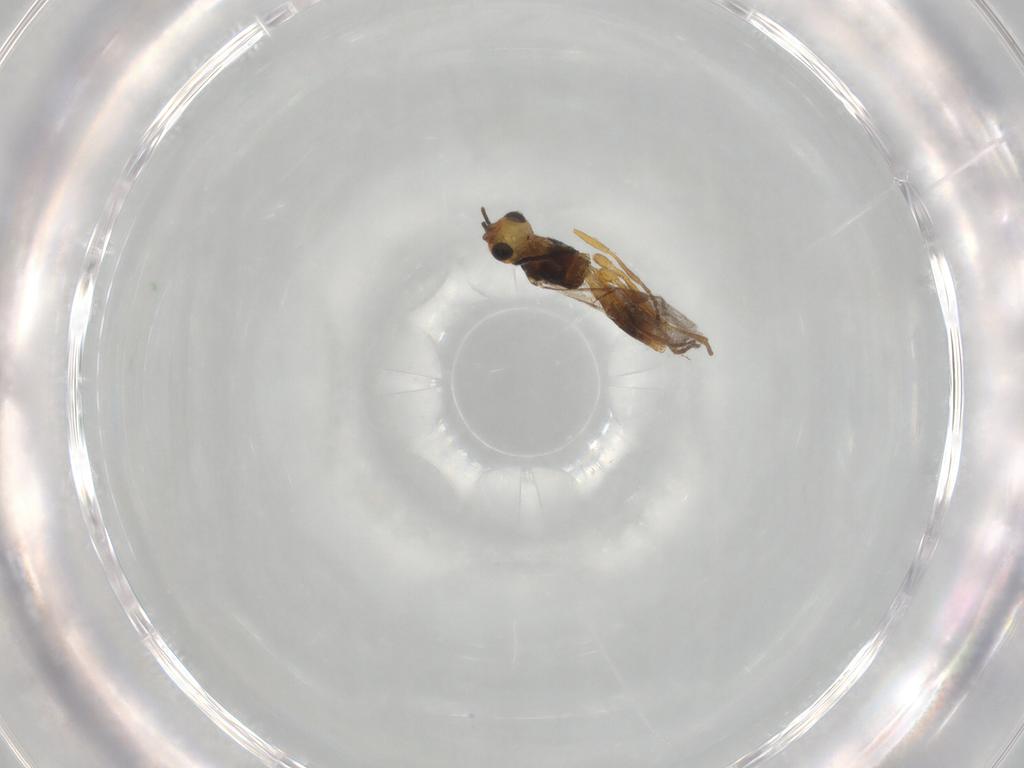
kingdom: Animalia
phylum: Arthropoda
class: Insecta
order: Hymenoptera
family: Braconidae
